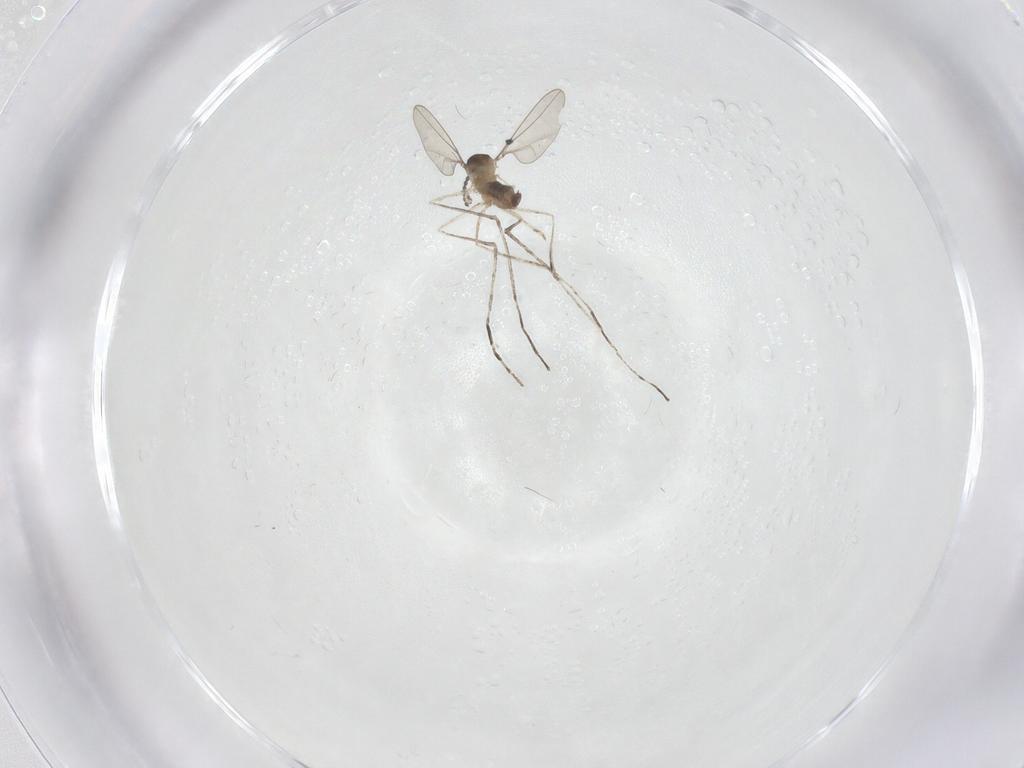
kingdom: Animalia
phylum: Arthropoda
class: Insecta
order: Diptera
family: Cecidomyiidae
